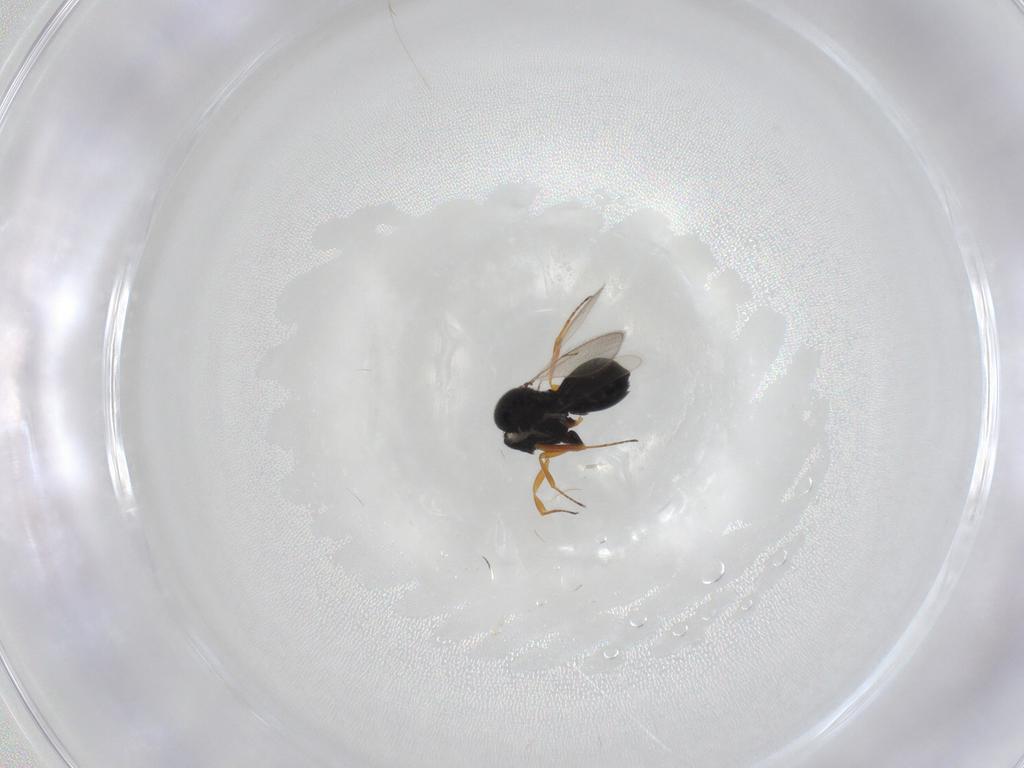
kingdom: Animalia
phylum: Arthropoda
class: Insecta
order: Hymenoptera
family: Scelionidae
